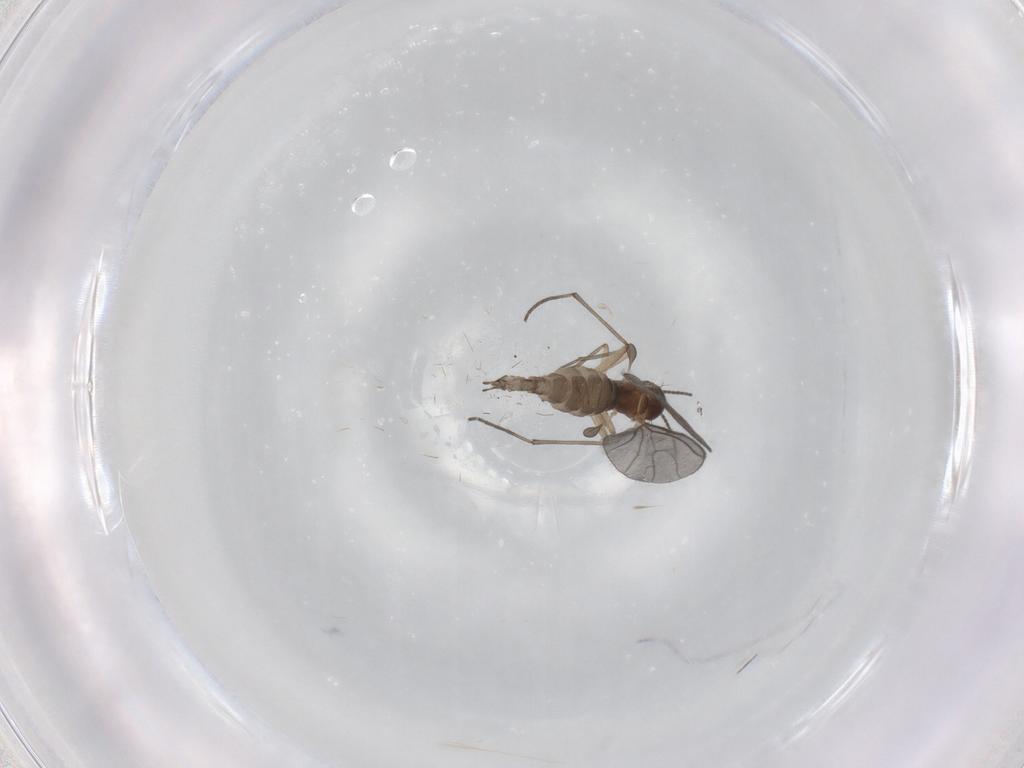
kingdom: Animalia
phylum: Arthropoda
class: Insecta
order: Diptera
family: Sciaridae
